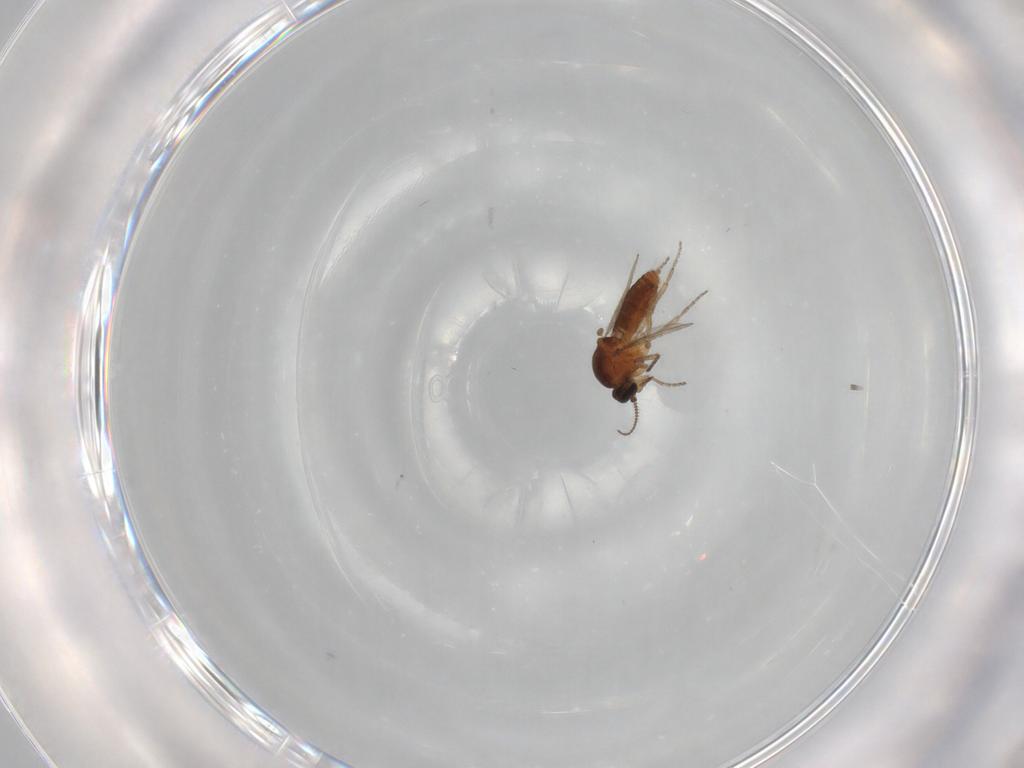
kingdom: Animalia
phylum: Arthropoda
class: Insecta
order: Diptera
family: Ceratopogonidae
